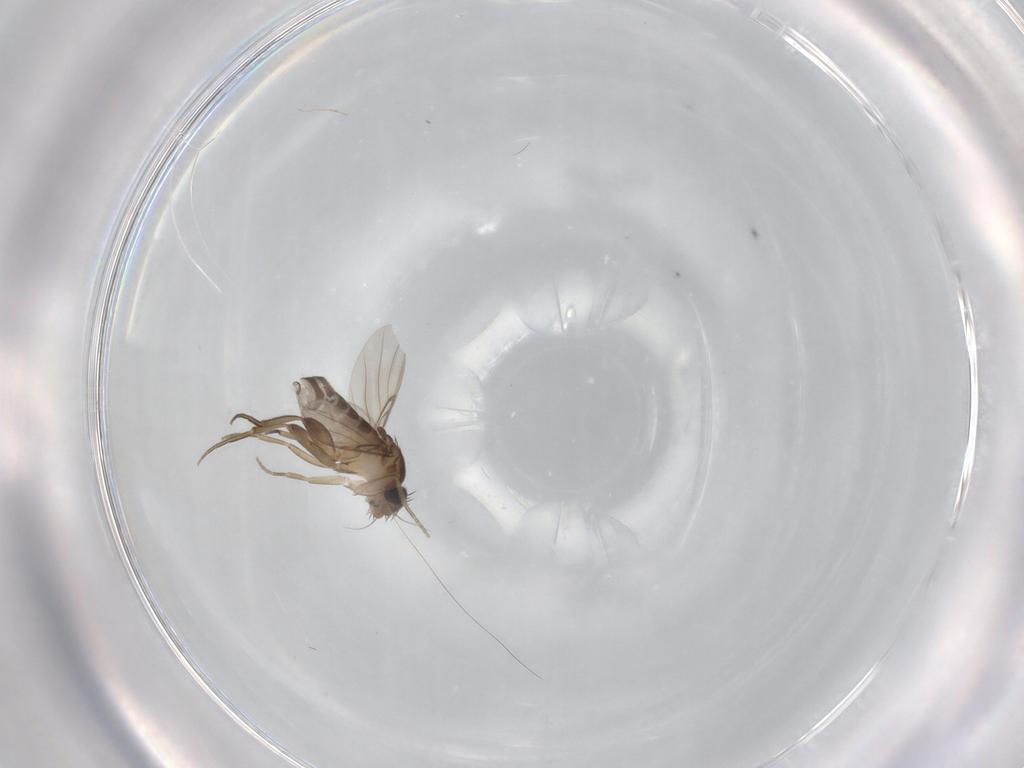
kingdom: Animalia
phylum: Arthropoda
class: Insecta
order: Diptera
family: Phoridae
